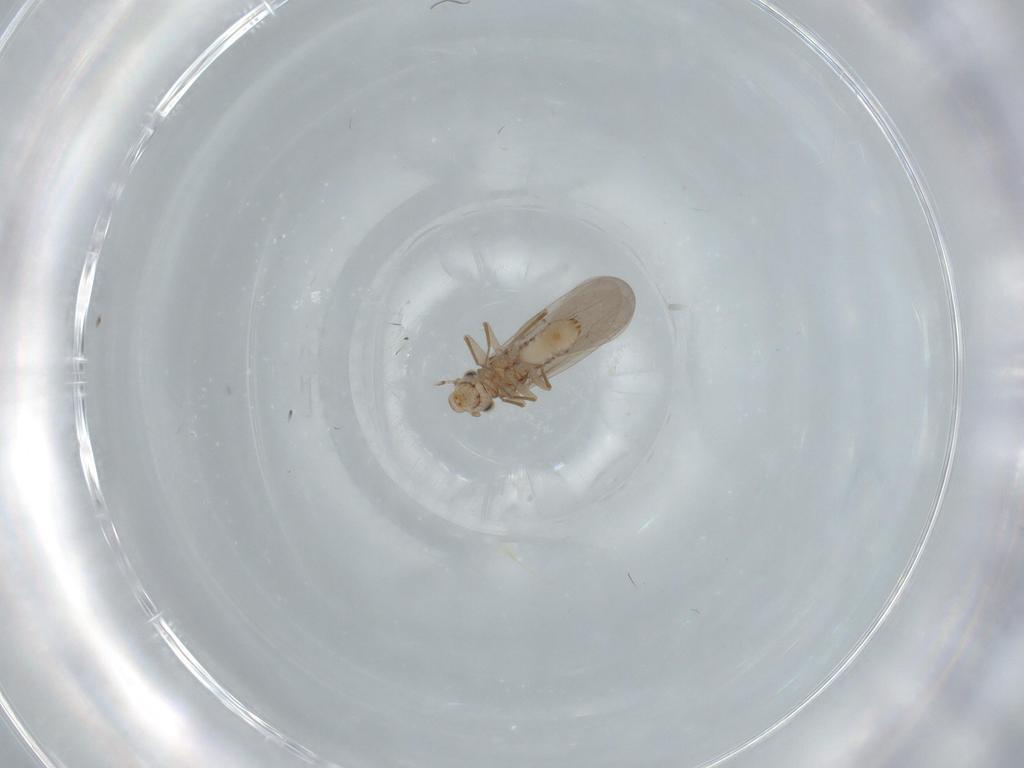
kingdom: Animalia
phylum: Arthropoda
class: Insecta
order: Psocodea
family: Lepidopsocidae
